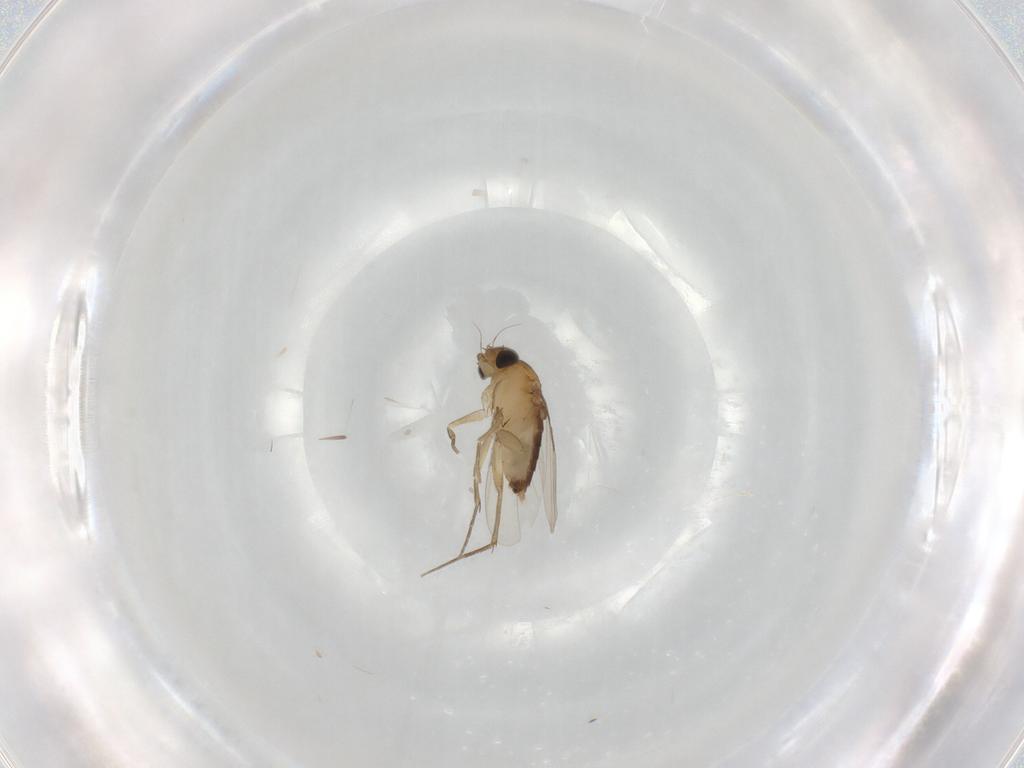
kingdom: Animalia
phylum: Arthropoda
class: Insecta
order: Diptera
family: Phoridae
